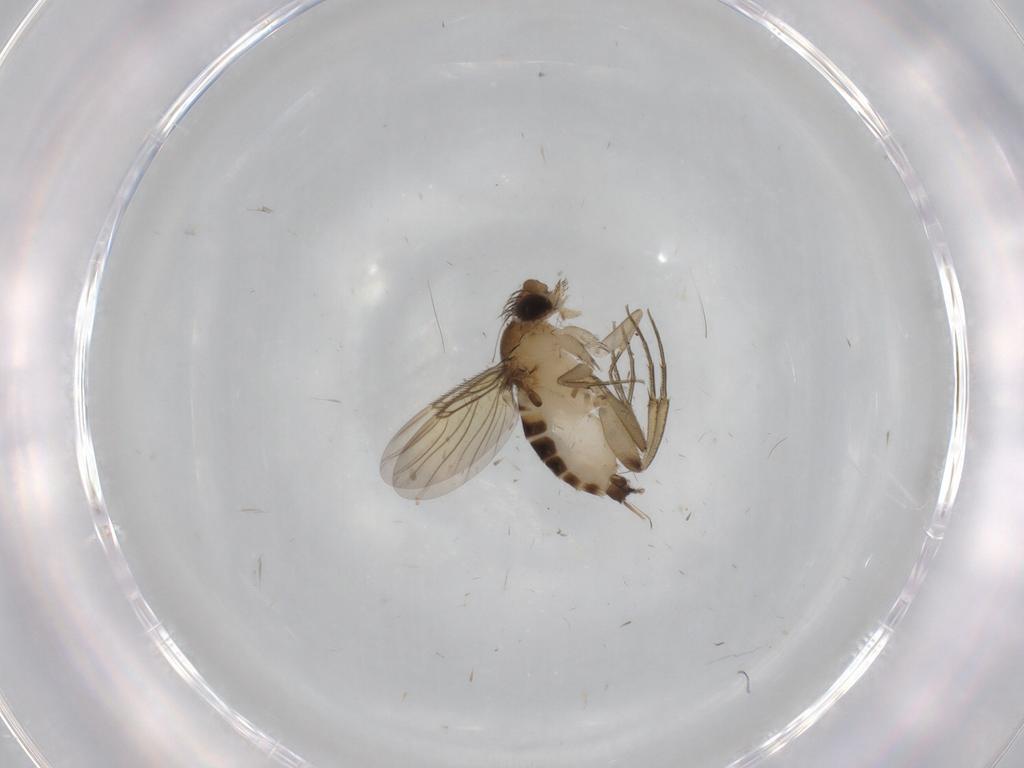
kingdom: Animalia
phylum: Arthropoda
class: Insecta
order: Diptera
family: Phoridae
